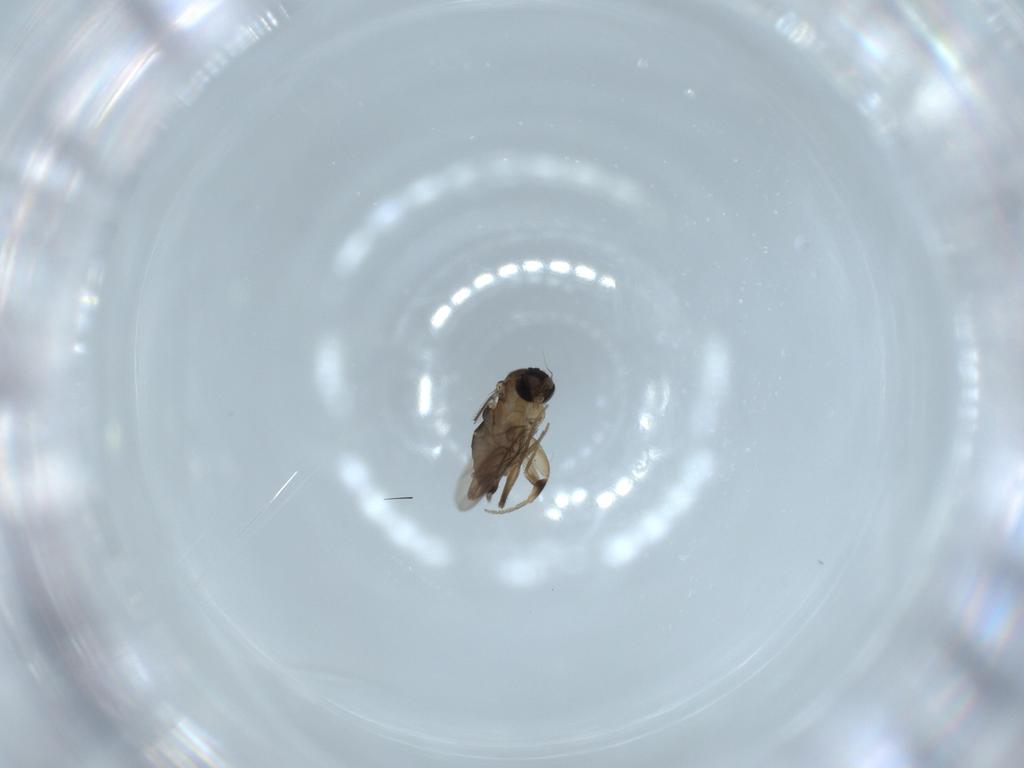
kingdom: Animalia
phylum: Arthropoda
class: Insecta
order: Diptera
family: Phoridae
